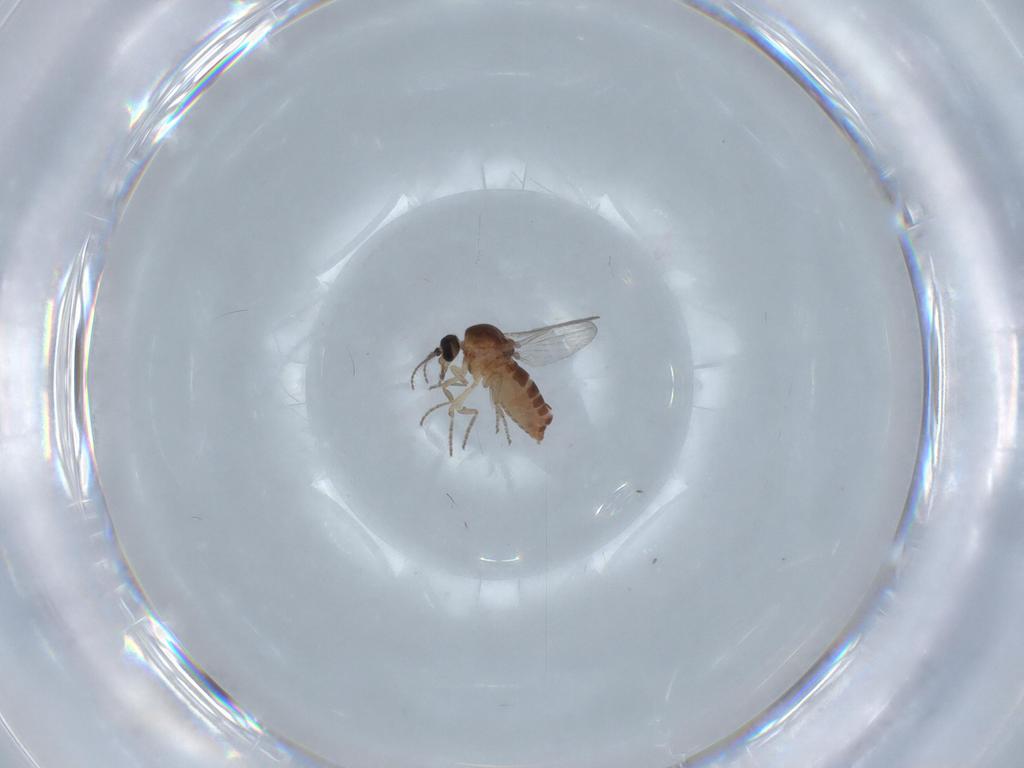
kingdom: Animalia
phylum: Arthropoda
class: Insecta
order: Diptera
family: Ceratopogonidae
